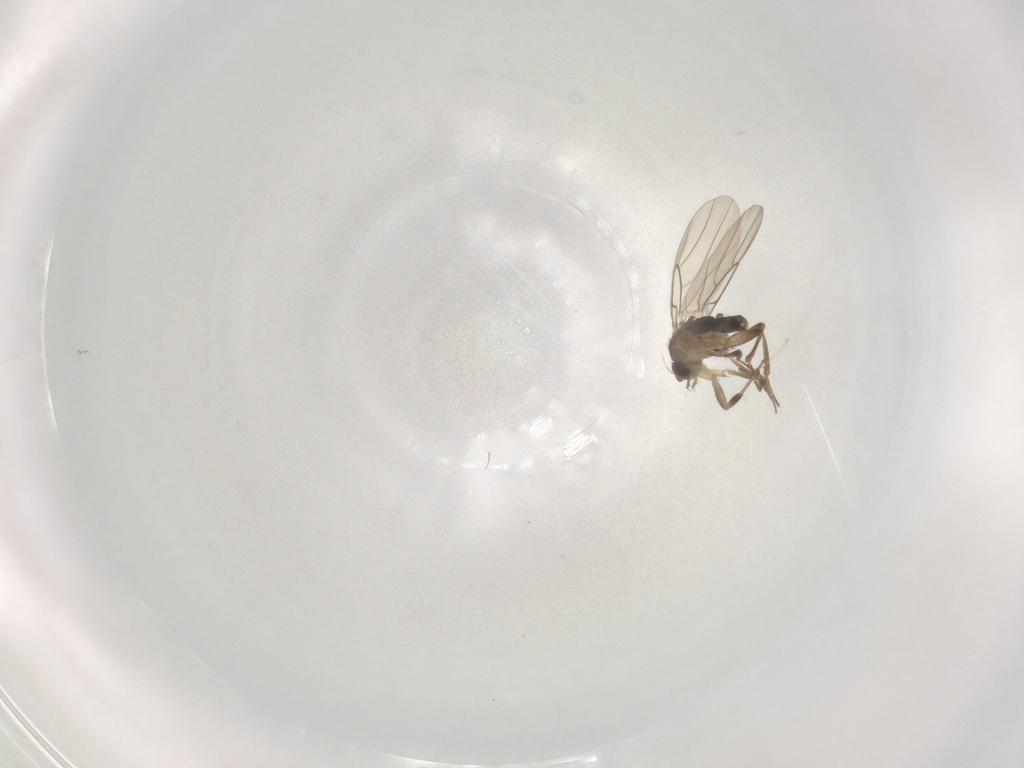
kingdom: Animalia
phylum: Arthropoda
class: Insecta
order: Diptera
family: Phoridae
